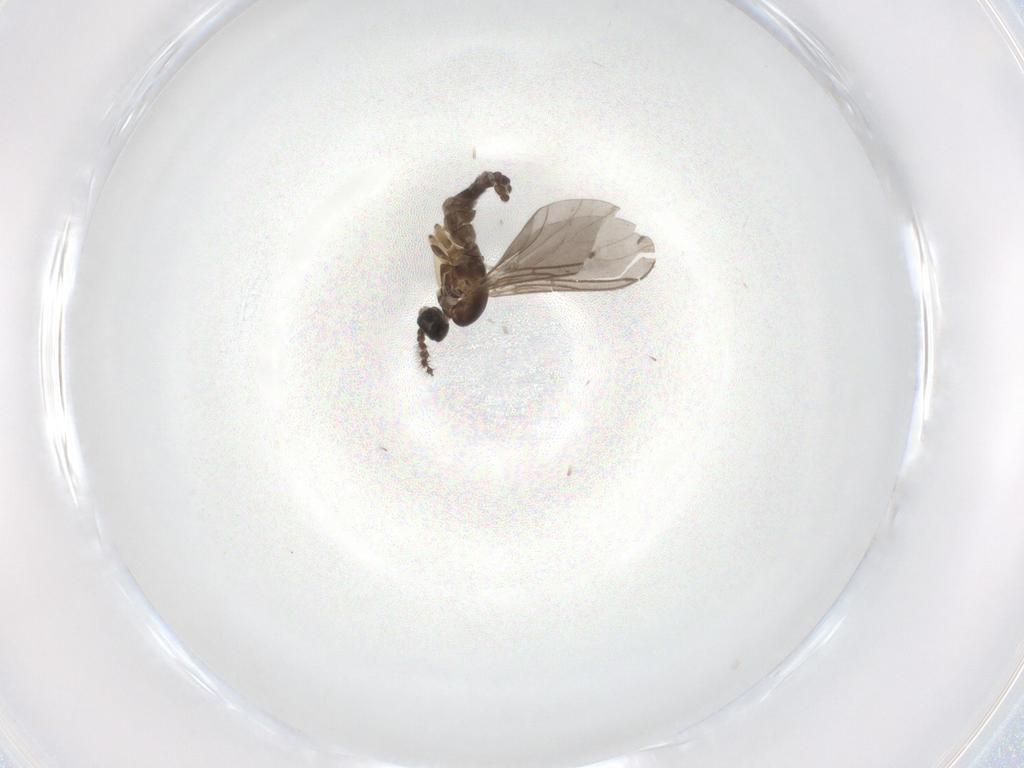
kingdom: Animalia
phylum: Arthropoda
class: Insecta
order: Diptera
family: Sciaridae
